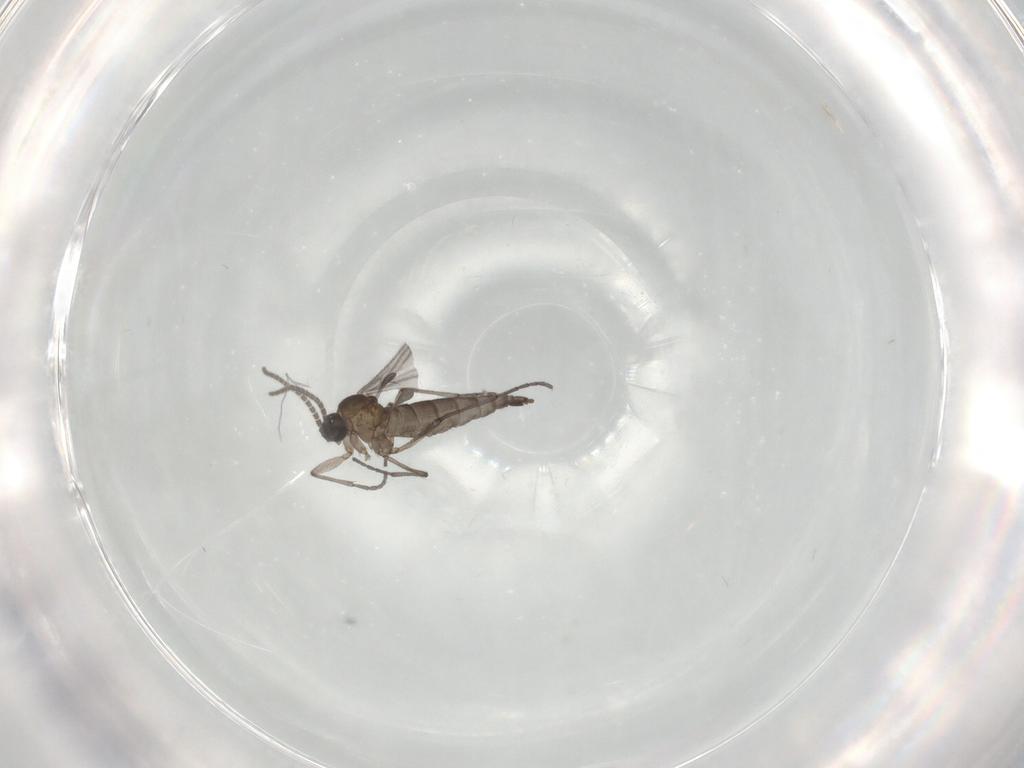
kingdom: Animalia
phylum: Arthropoda
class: Insecta
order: Diptera
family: Sciaridae
